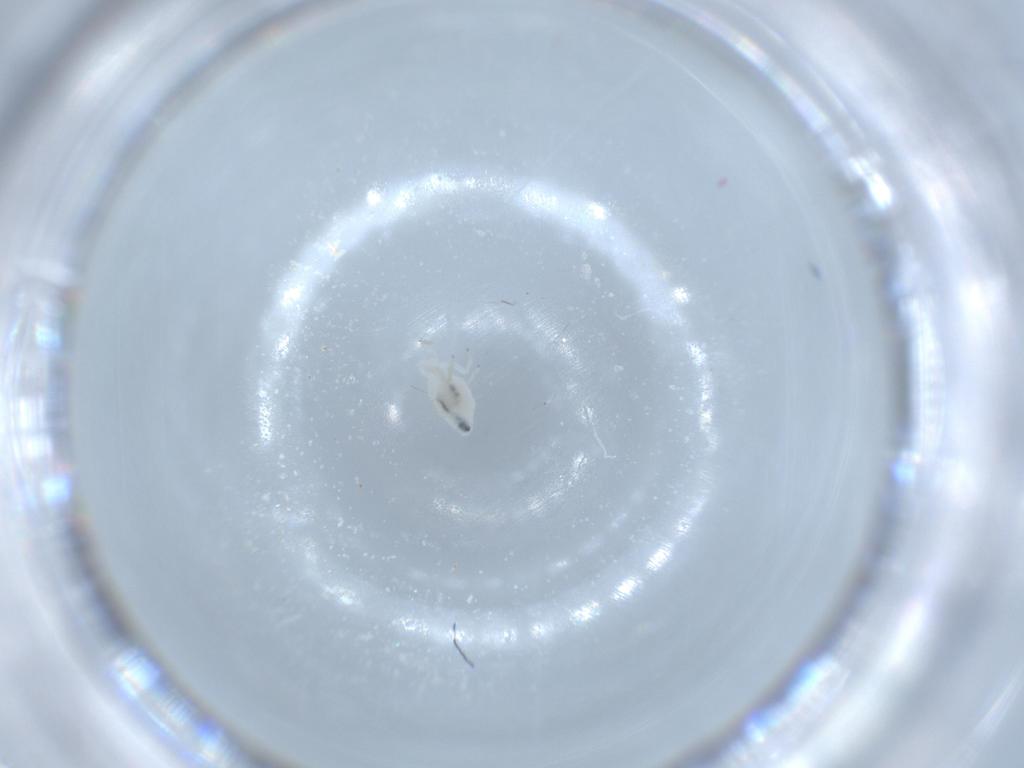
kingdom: Animalia
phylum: Arthropoda
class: Insecta
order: Psocodea
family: Caeciliusidae
